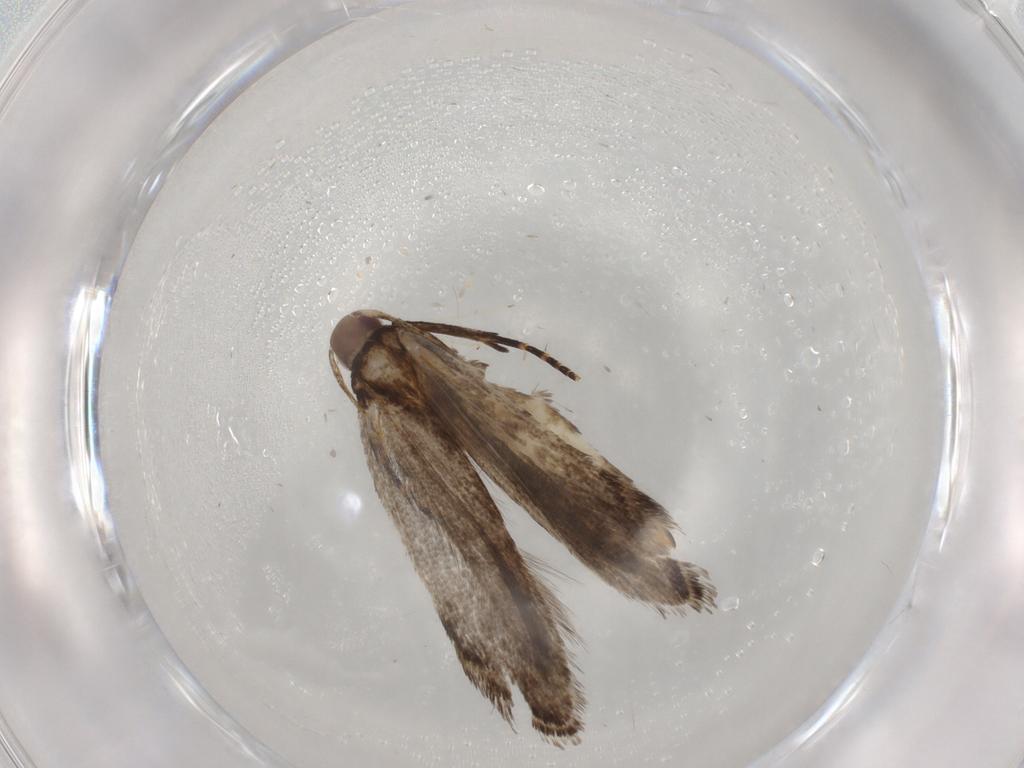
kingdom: Animalia
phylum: Arthropoda
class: Insecta
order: Lepidoptera
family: Gelechiidae
